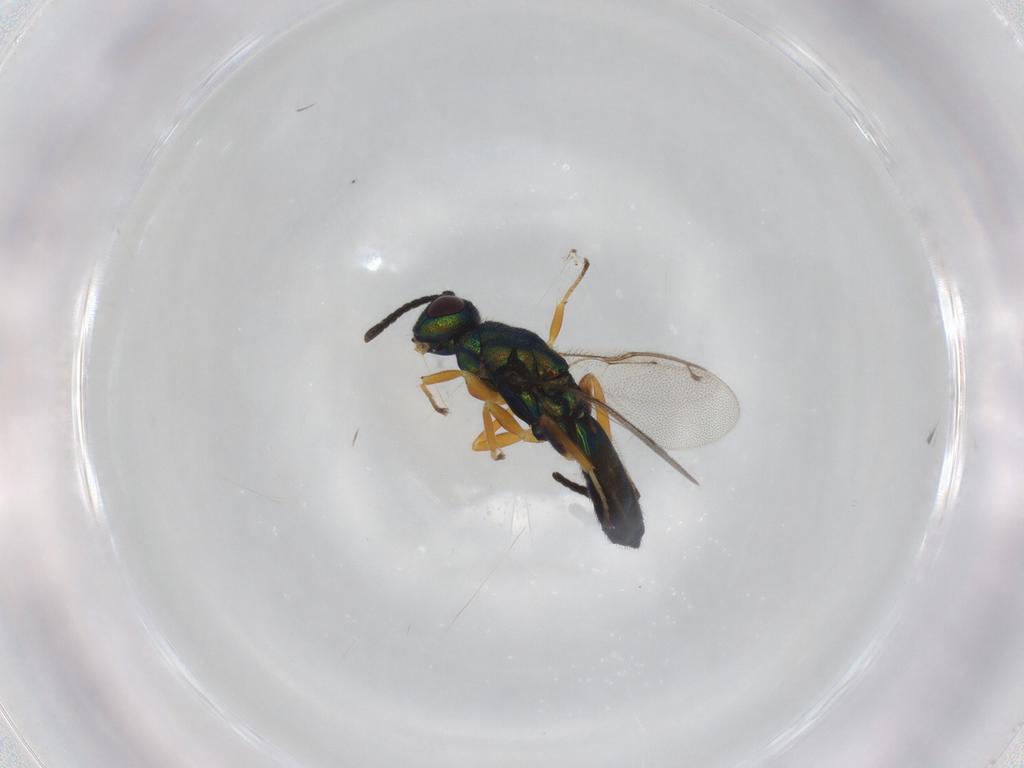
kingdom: Animalia
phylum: Arthropoda
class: Insecta
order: Hymenoptera
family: Eupelmidae
